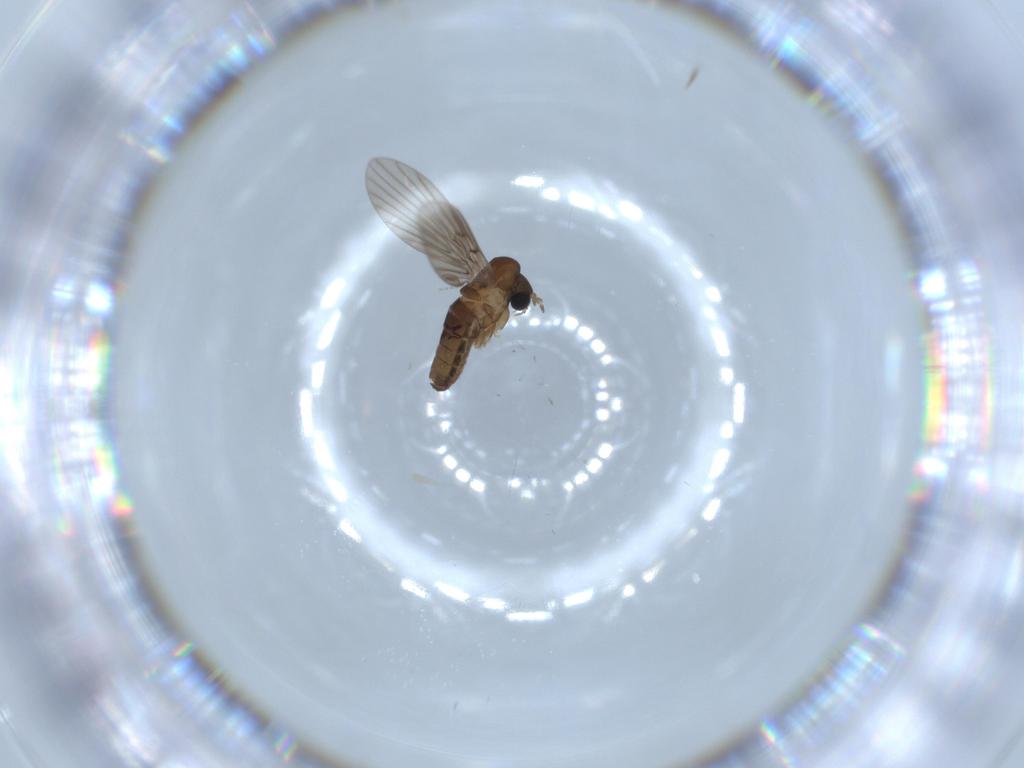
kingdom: Animalia
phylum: Arthropoda
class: Insecta
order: Diptera
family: Psychodidae
